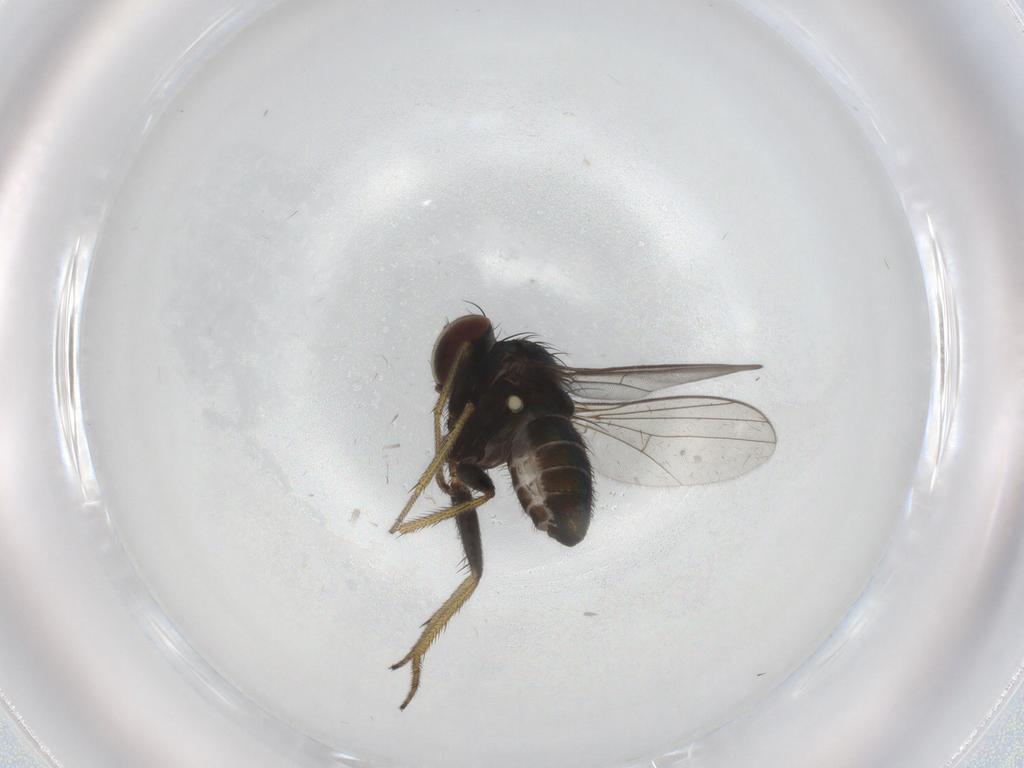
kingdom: Animalia
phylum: Arthropoda
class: Insecta
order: Diptera
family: Dolichopodidae
